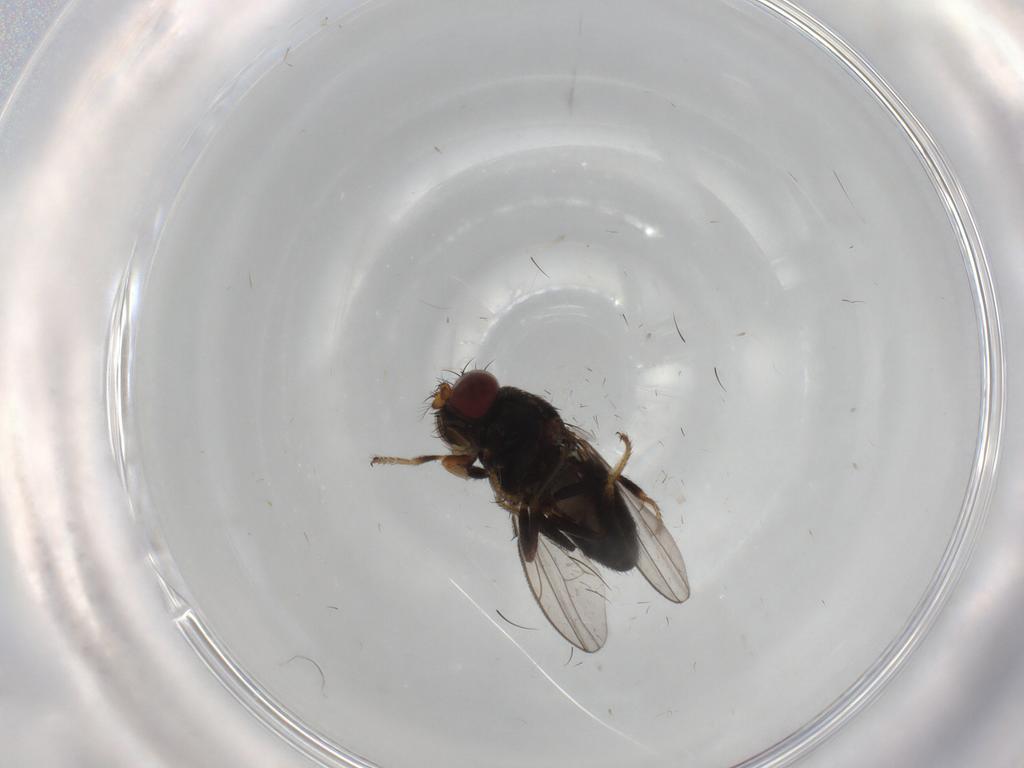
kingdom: Animalia
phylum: Arthropoda
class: Insecta
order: Diptera
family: Ephydridae
